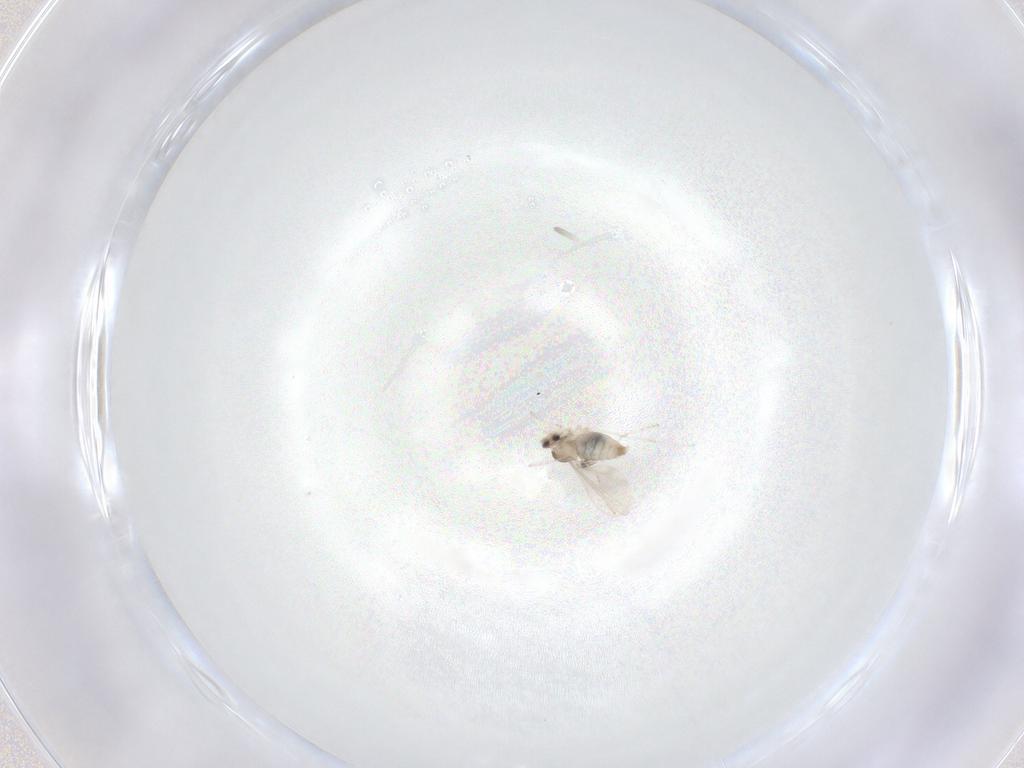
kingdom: Animalia
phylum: Arthropoda
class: Insecta
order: Diptera
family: Cecidomyiidae
